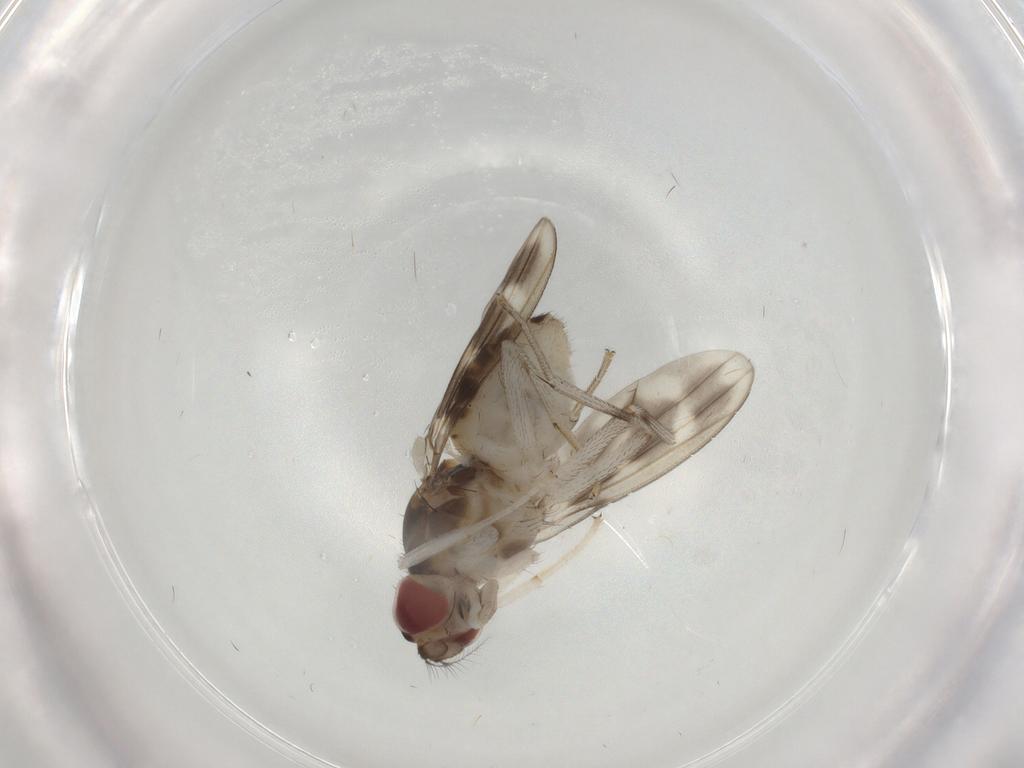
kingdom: Animalia
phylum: Arthropoda
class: Insecta
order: Diptera
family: Lauxaniidae
